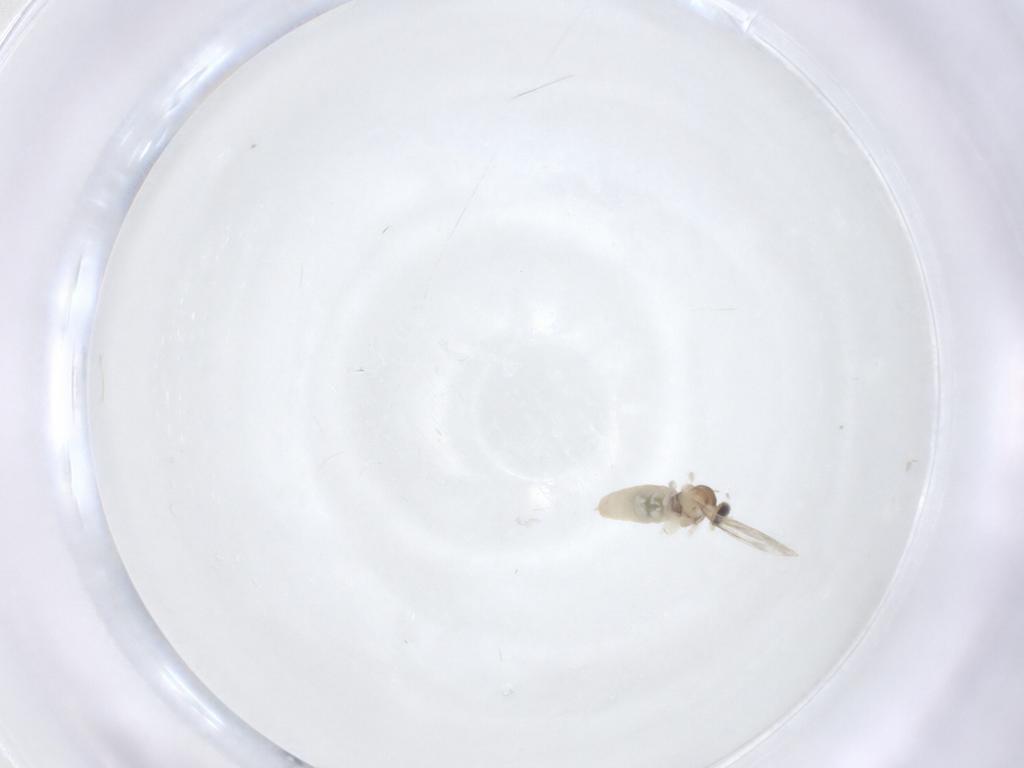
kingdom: Animalia
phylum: Arthropoda
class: Insecta
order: Diptera
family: Cecidomyiidae
